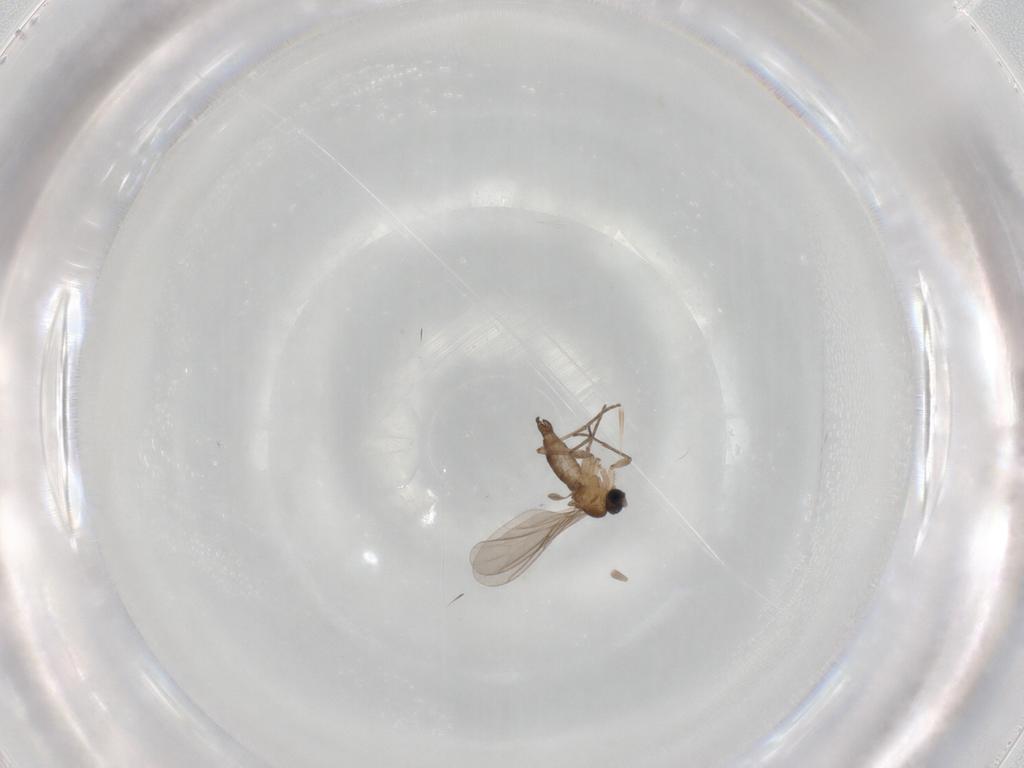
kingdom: Animalia
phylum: Arthropoda
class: Insecta
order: Diptera
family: Sciaridae
